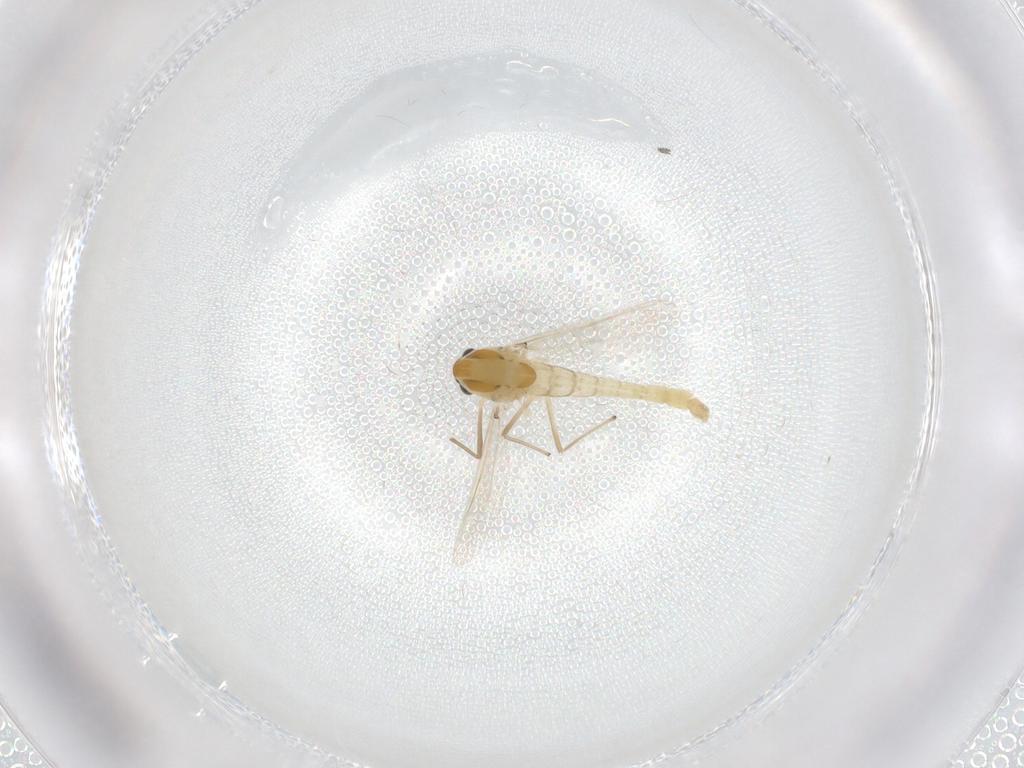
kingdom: Animalia
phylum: Arthropoda
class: Insecta
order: Diptera
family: Chironomidae
